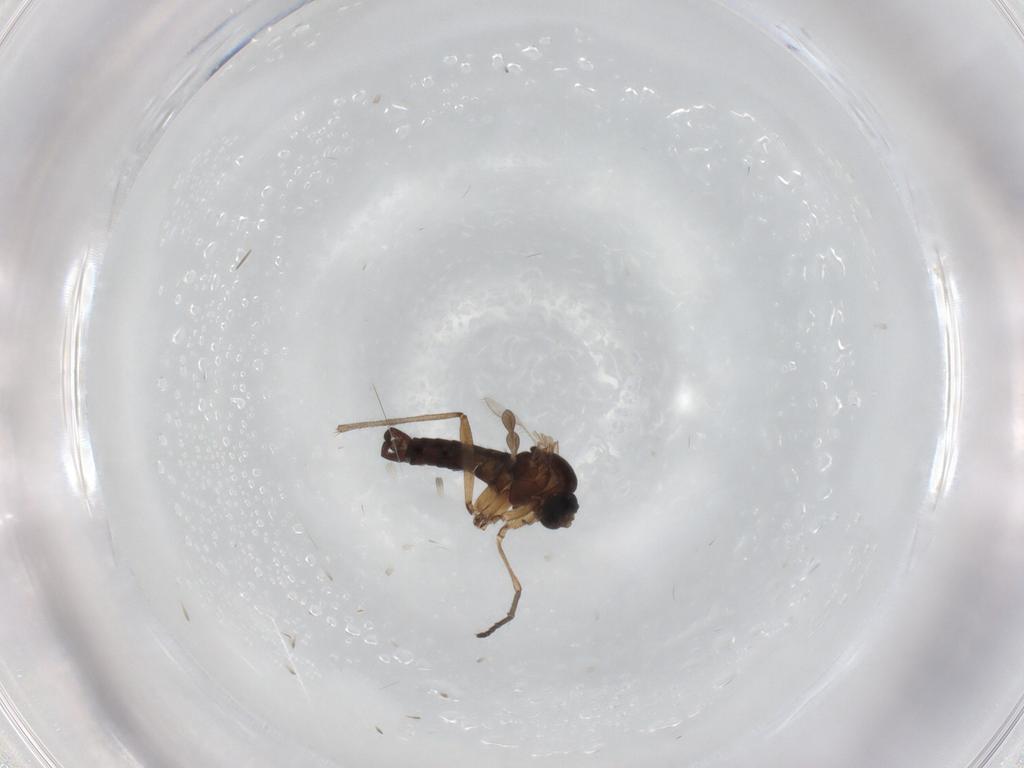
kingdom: Animalia
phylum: Arthropoda
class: Insecta
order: Diptera
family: Sciaridae
